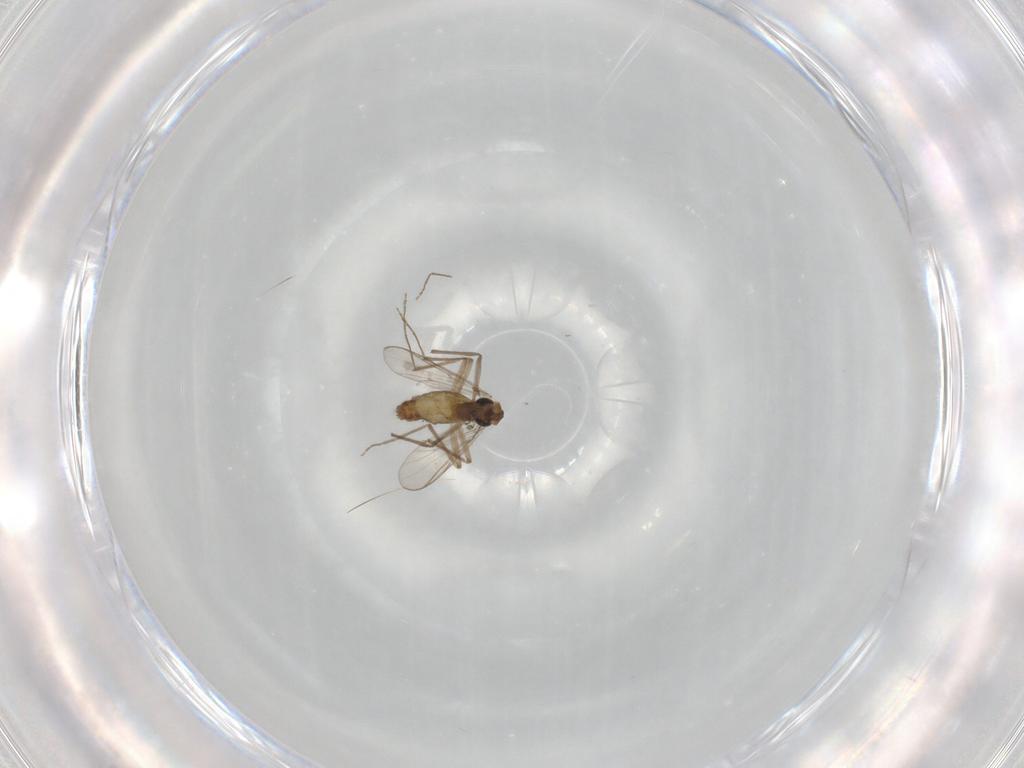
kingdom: Animalia
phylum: Arthropoda
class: Insecta
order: Diptera
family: Chironomidae
